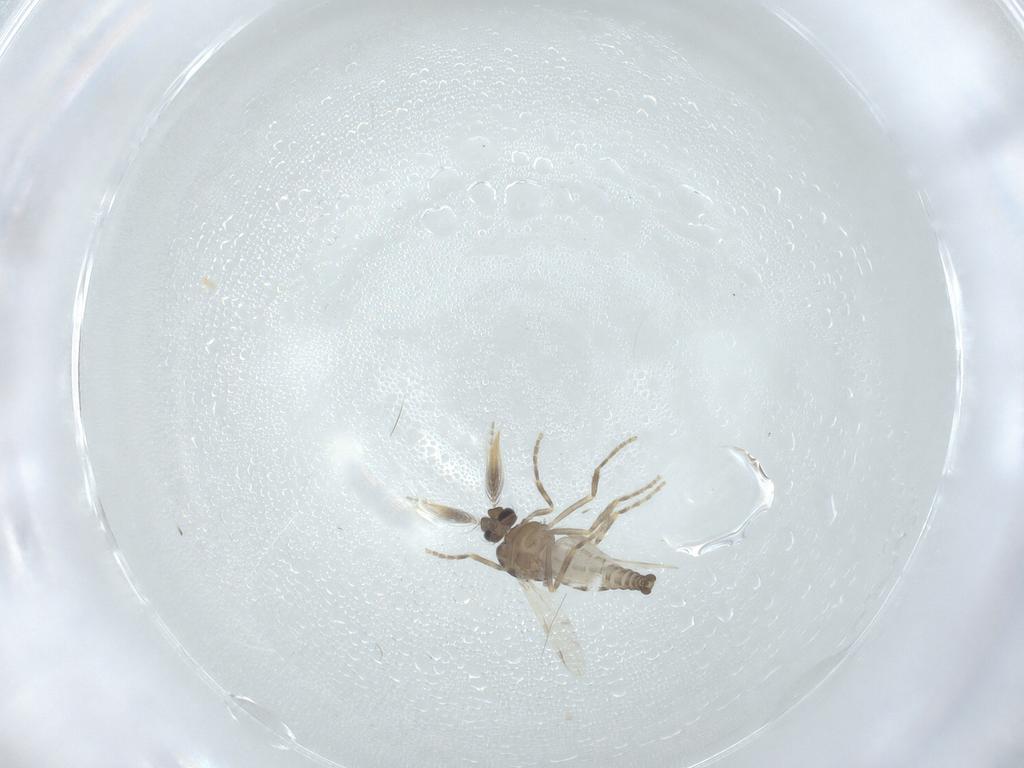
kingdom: Animalia
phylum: Arthropoda
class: Insecta
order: Diptera
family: Ceratopogonidae
